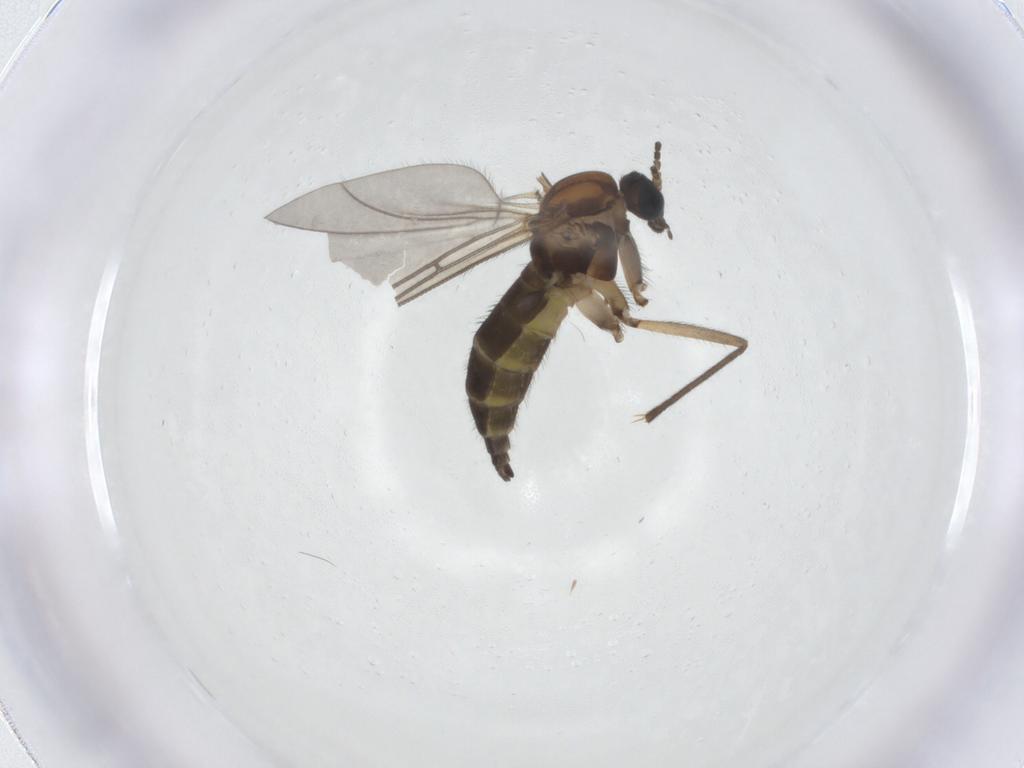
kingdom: Animalia
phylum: Arthropoda
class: Insecta
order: Diptera
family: Sciaridae
